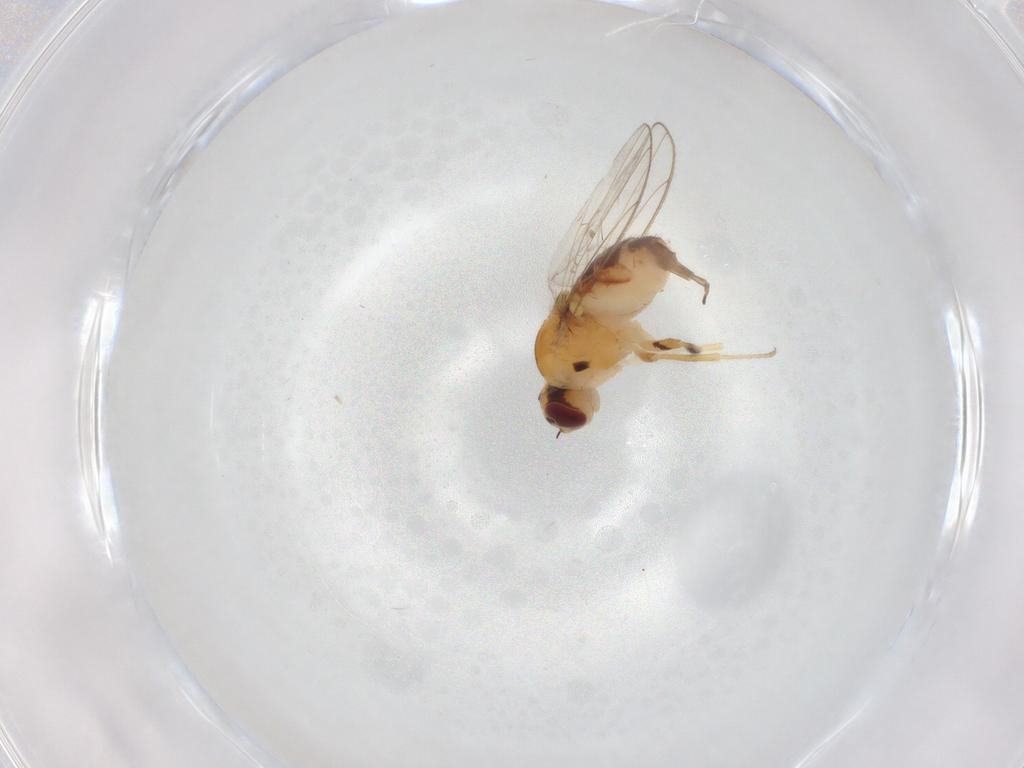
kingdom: Animalia
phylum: Arthropoda
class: Insecta
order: Diptera
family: Chloropidae
